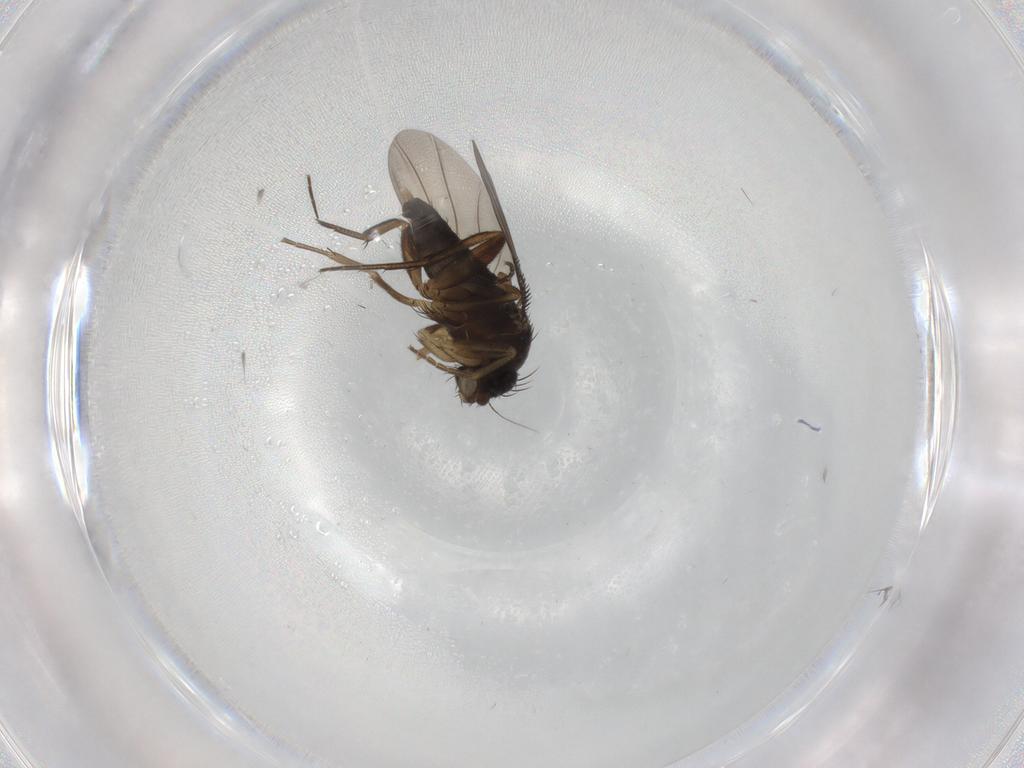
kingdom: Animalia
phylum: Arthropoda
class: Insecta
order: Diptera
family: Phoridae
